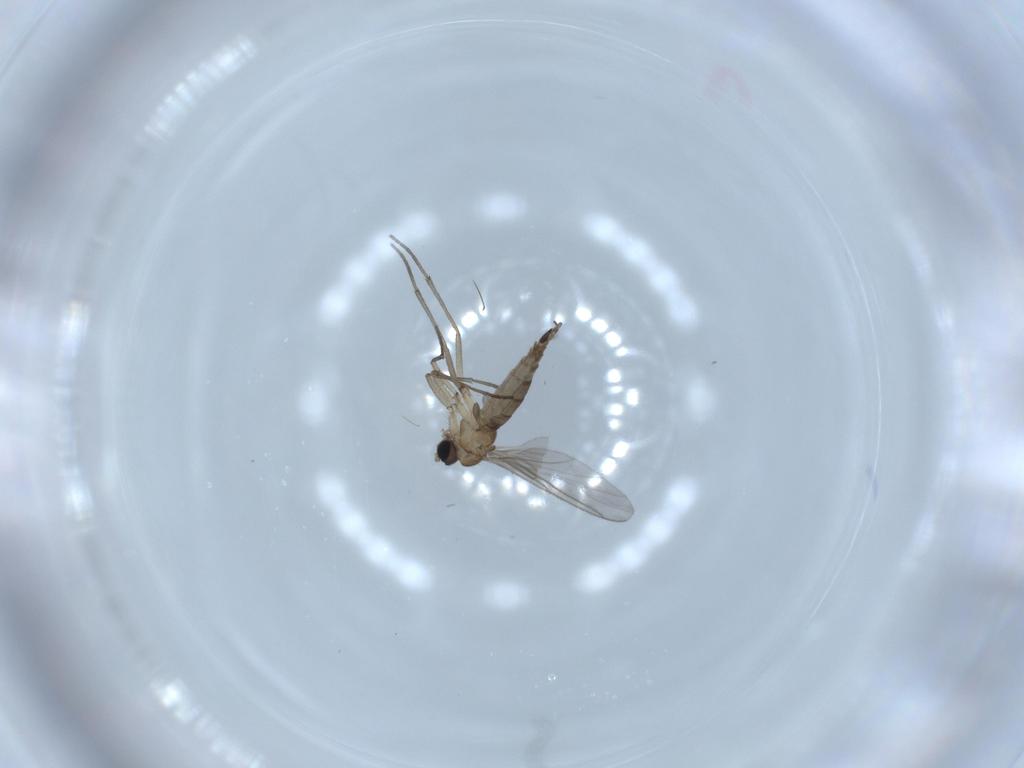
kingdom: Animalia
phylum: Arthropoda
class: Insecta
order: Diptera
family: Sciaridae
